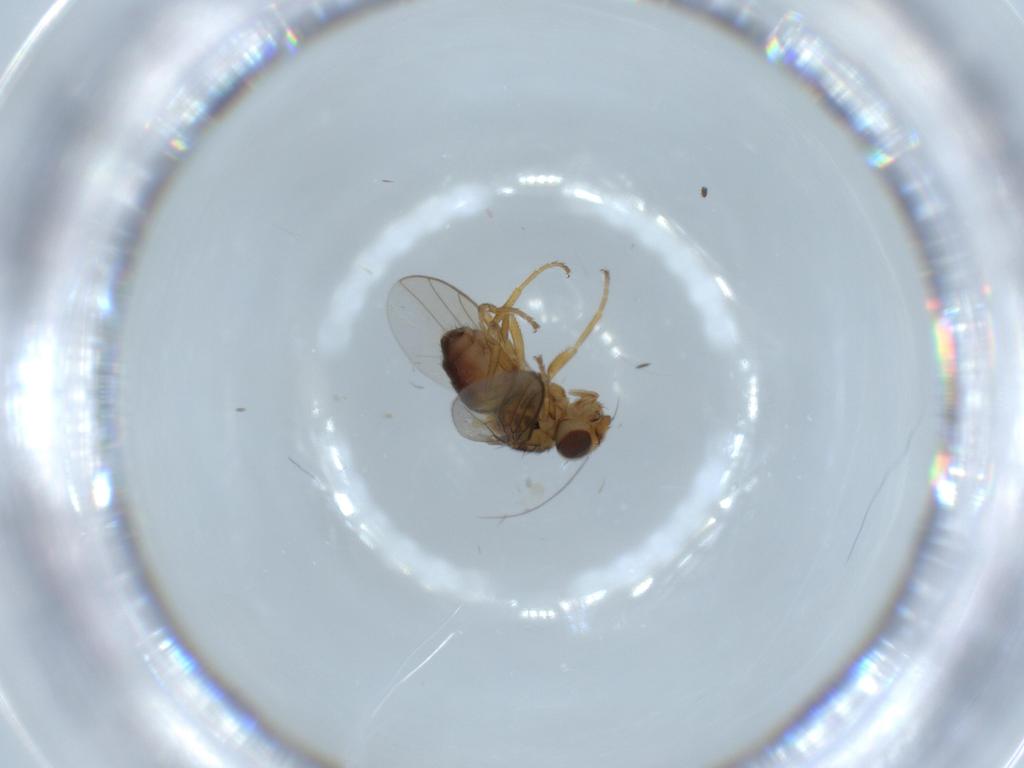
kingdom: Animalia
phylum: Arthropoda
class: Insecta
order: Diptera
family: Chloropidae
